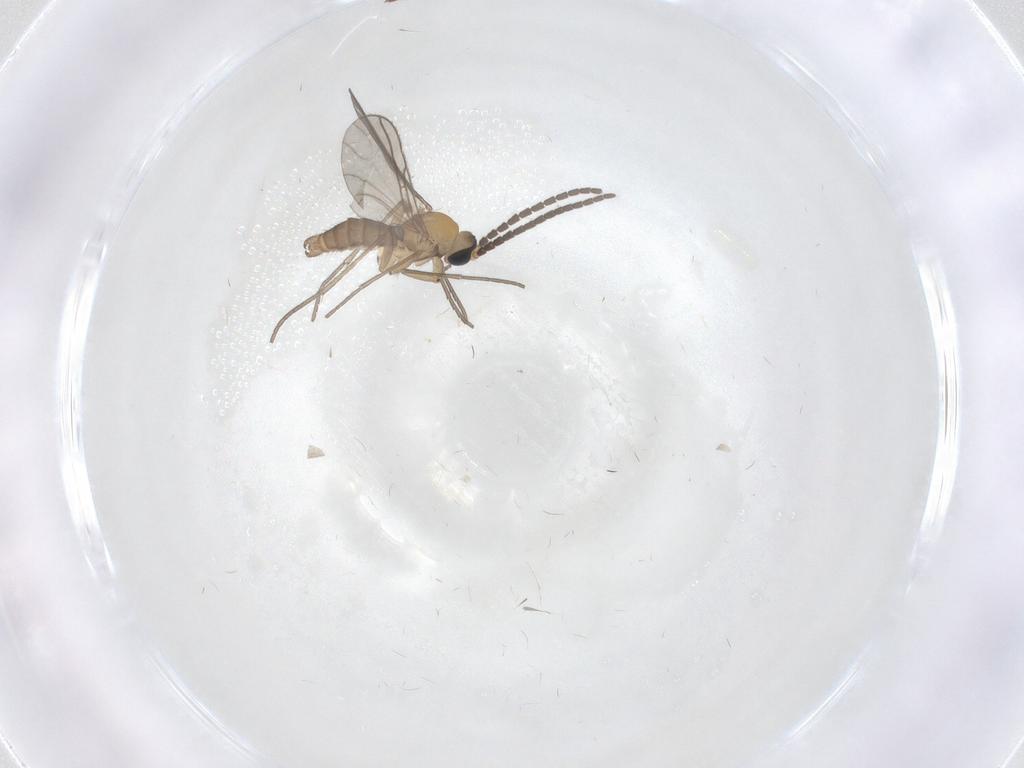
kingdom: Animalia
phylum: Arthropoda
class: Insecta
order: Diptera
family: Sciaridae
